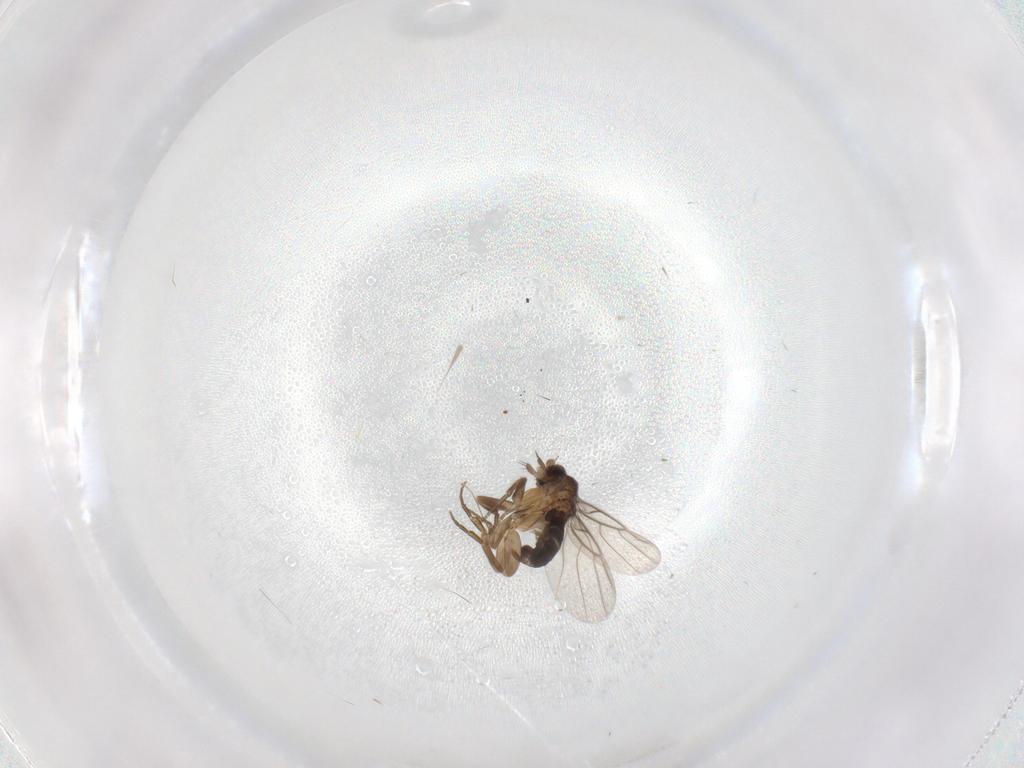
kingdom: Animalia
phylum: Arthropoda
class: Insecta
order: Diptera
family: Phoridae
